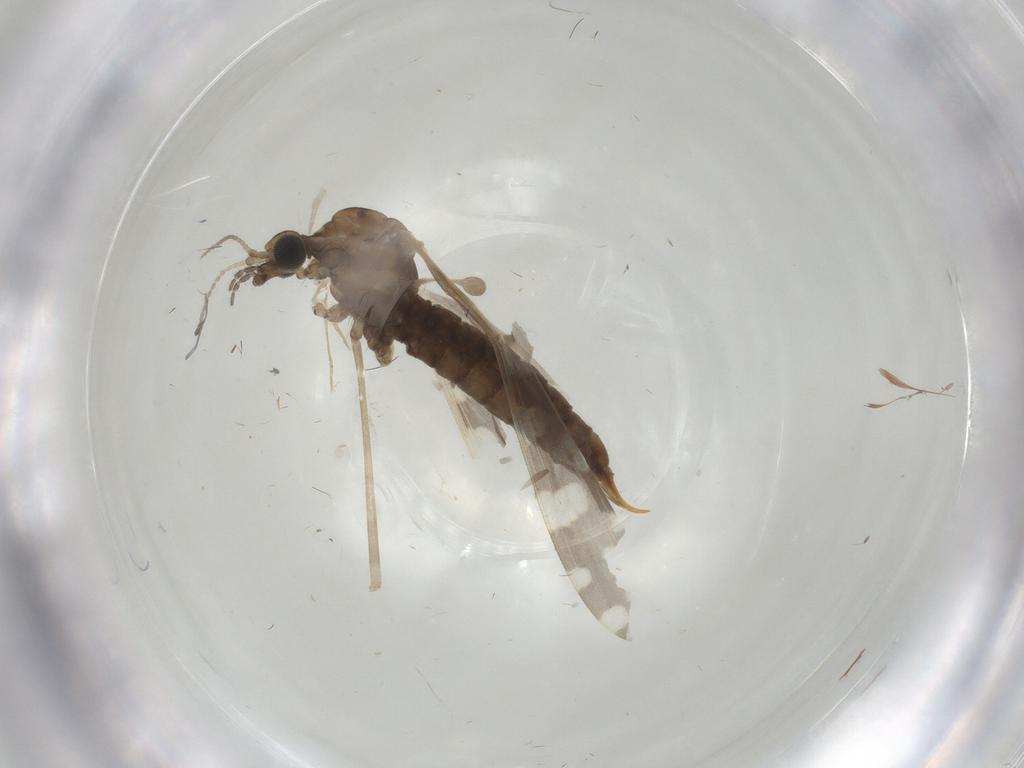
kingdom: Animalia
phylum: Arthropoda
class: Insecta
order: Diptera
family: Limoniidae
